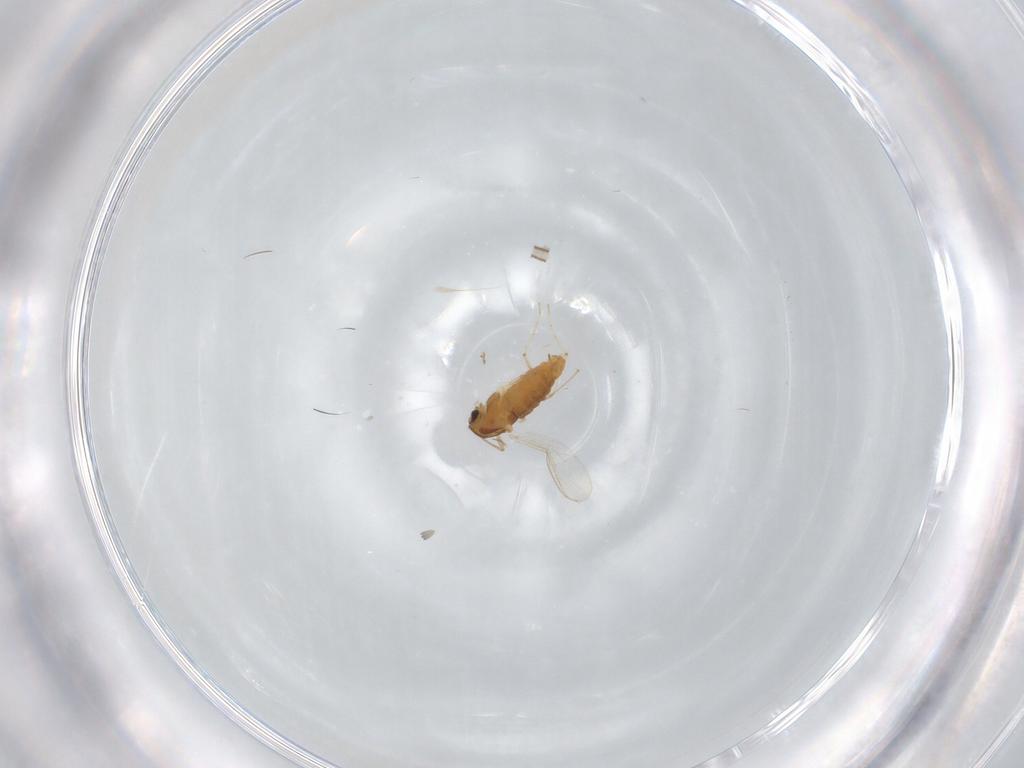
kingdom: Animalia
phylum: Arthropoda
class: Insecta
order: Diptera
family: Chironomidae
